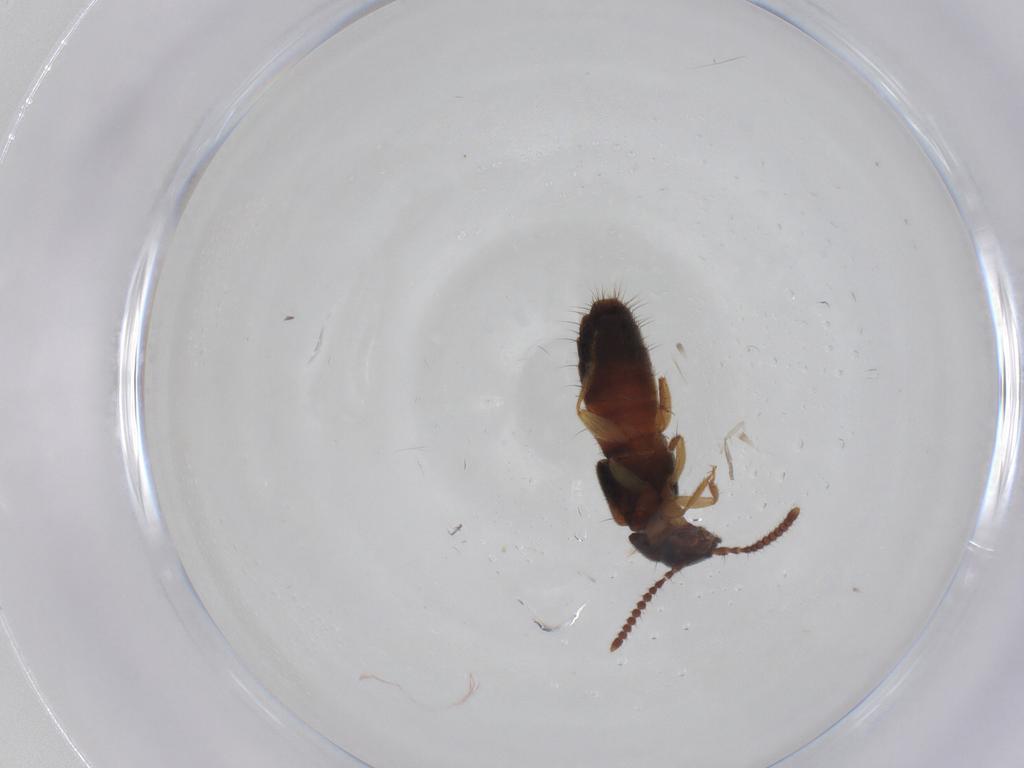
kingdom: Animalia
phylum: Arthropoda
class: Insecta
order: Coleoptera
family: Staphylinidae
